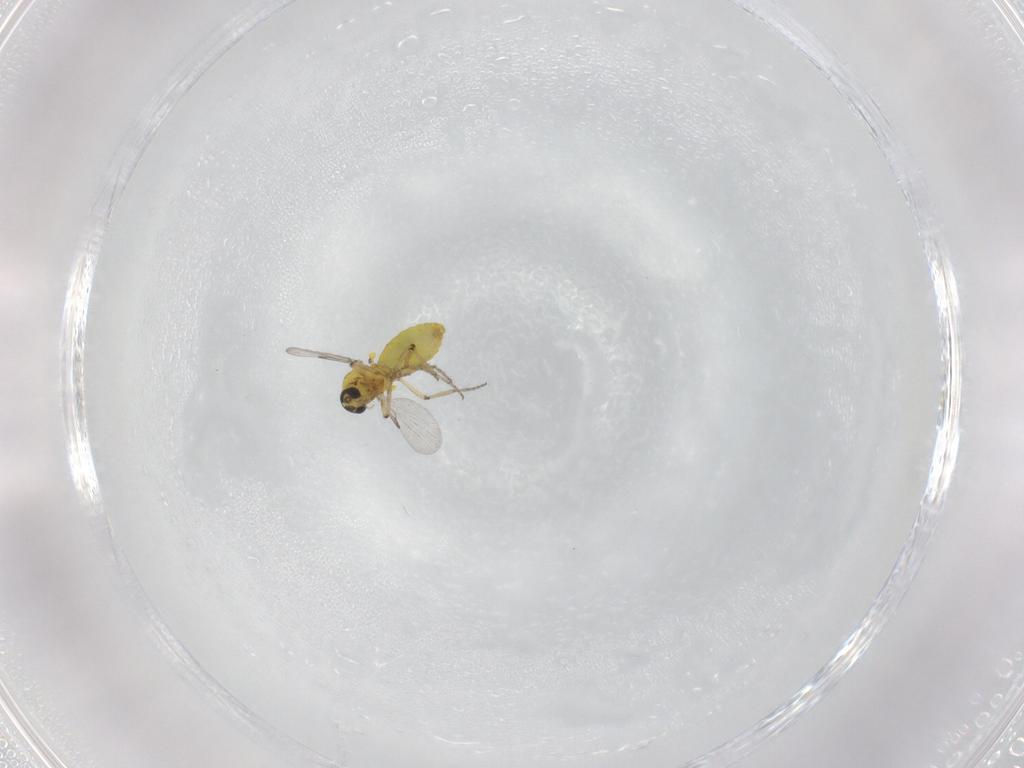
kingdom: Animalia
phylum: Arthropoda
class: Insecta
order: Diptera
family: Ceratopogonidae
